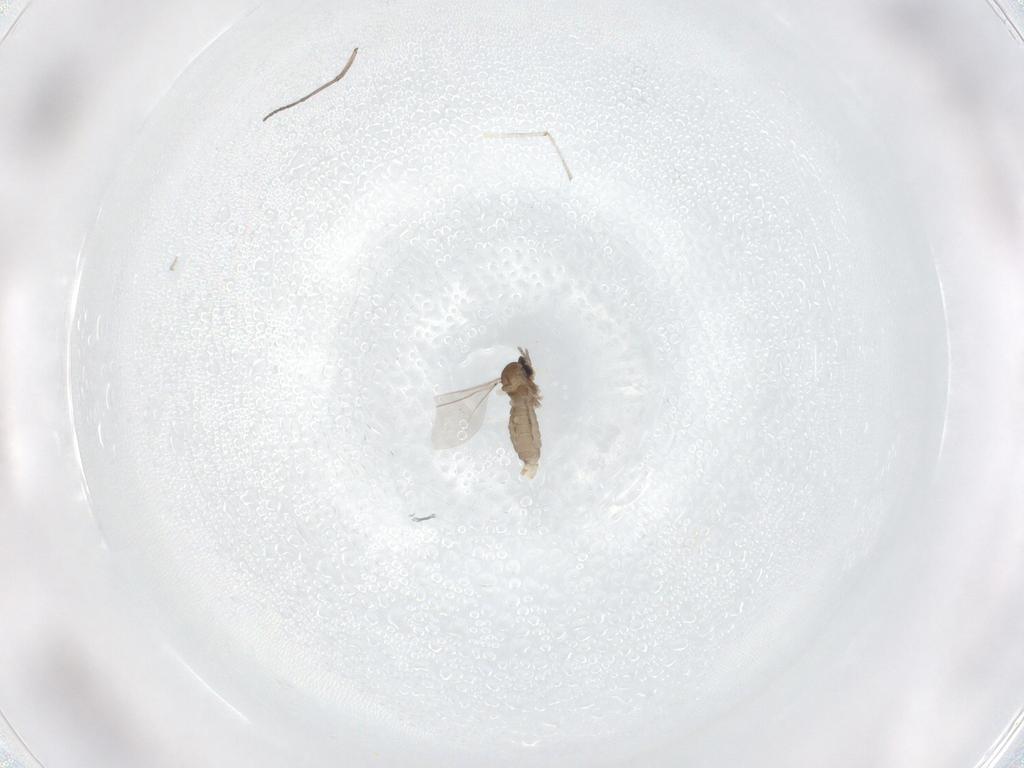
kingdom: Animalia
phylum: Arthropoda
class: Insecta
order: Diptera
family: Cecidomyiidae
